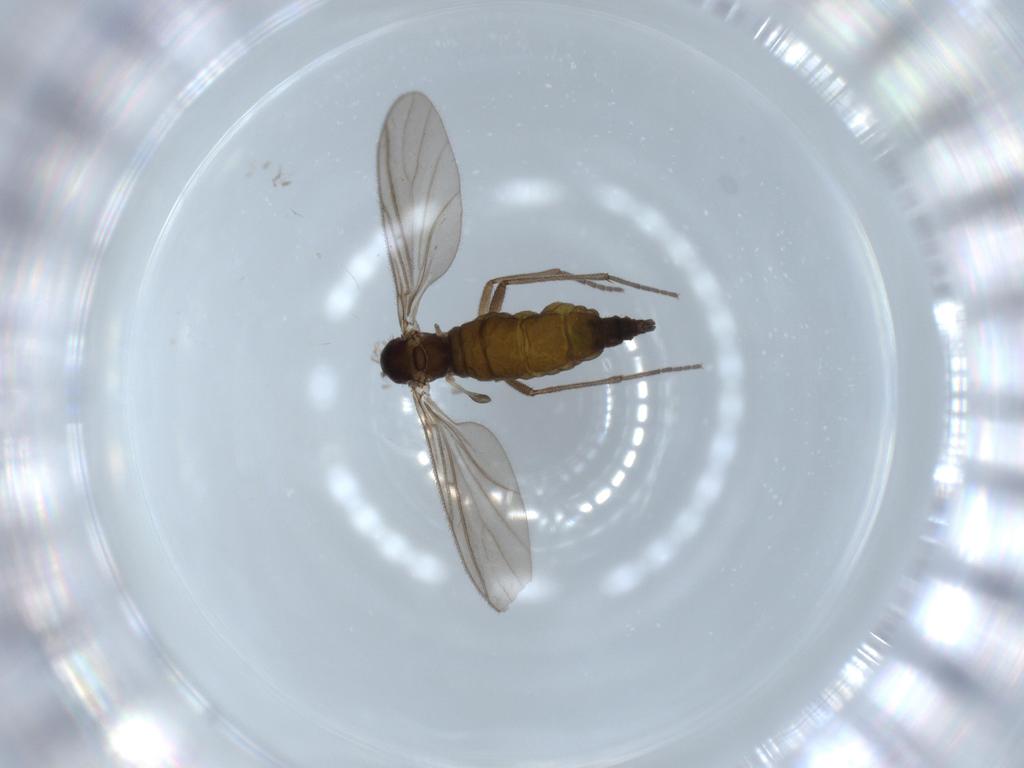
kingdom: Animalia
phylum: Arthropoda
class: Insecta
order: Diptera
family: Sciaridae
